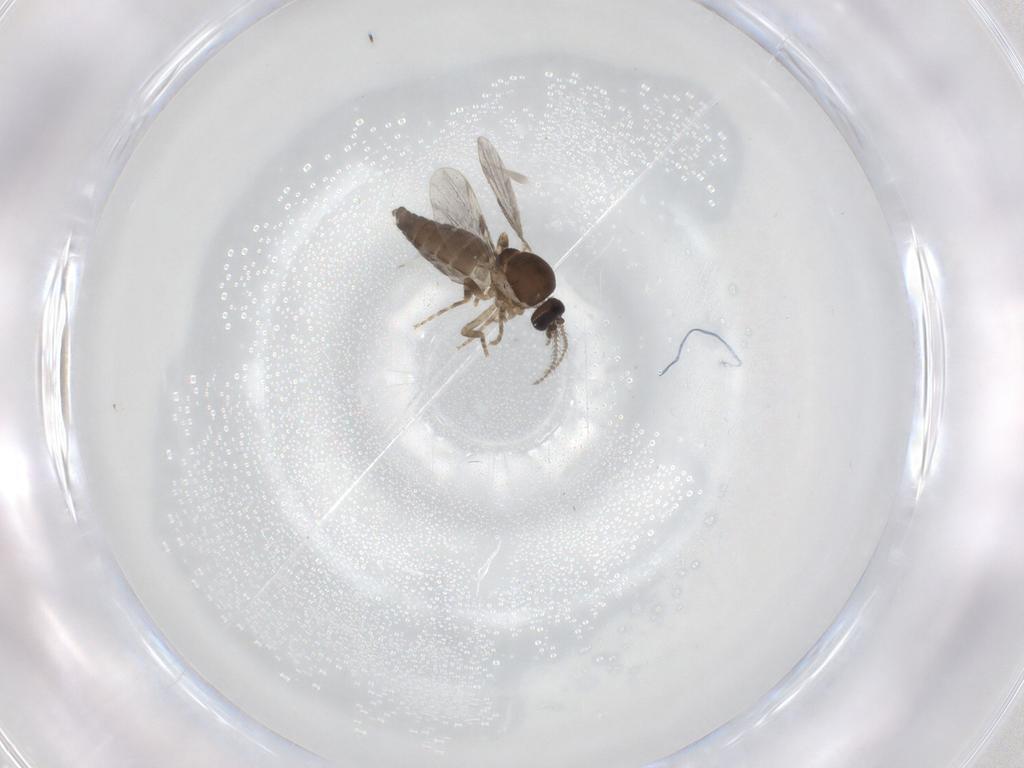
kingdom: Animalia
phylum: Arthropoda
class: Insecta
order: Diptera
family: Ceratopogonidae
